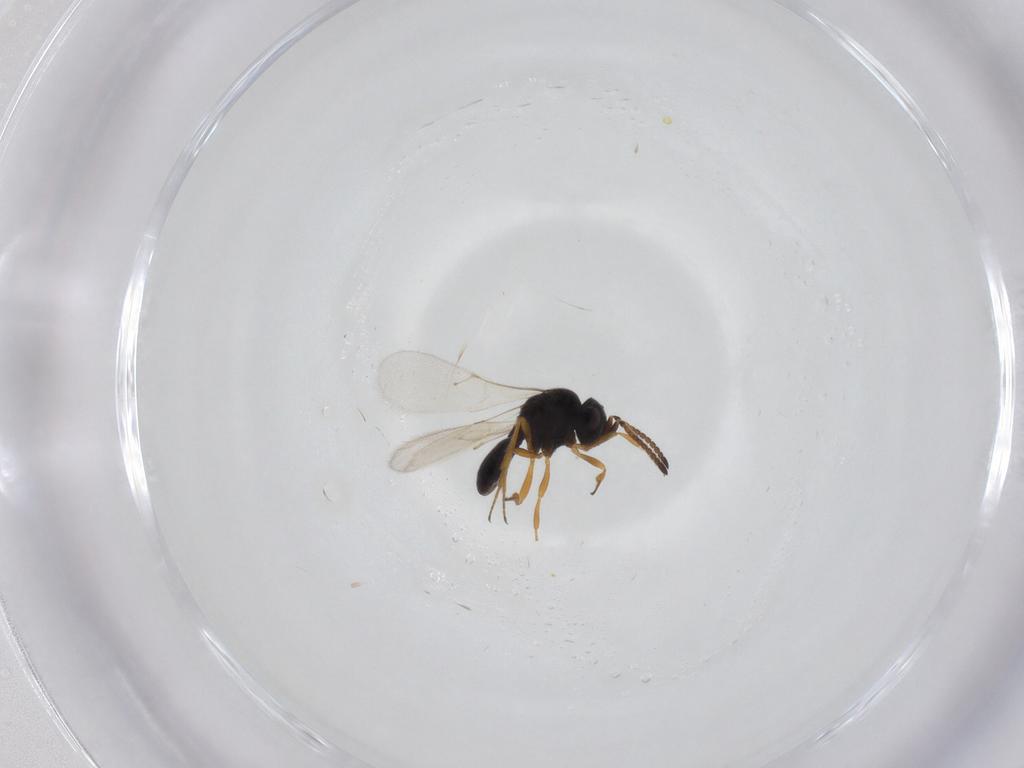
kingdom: Animalia
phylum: Arthropoda
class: Insecta
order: Hymenoptera
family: Scelionidae
